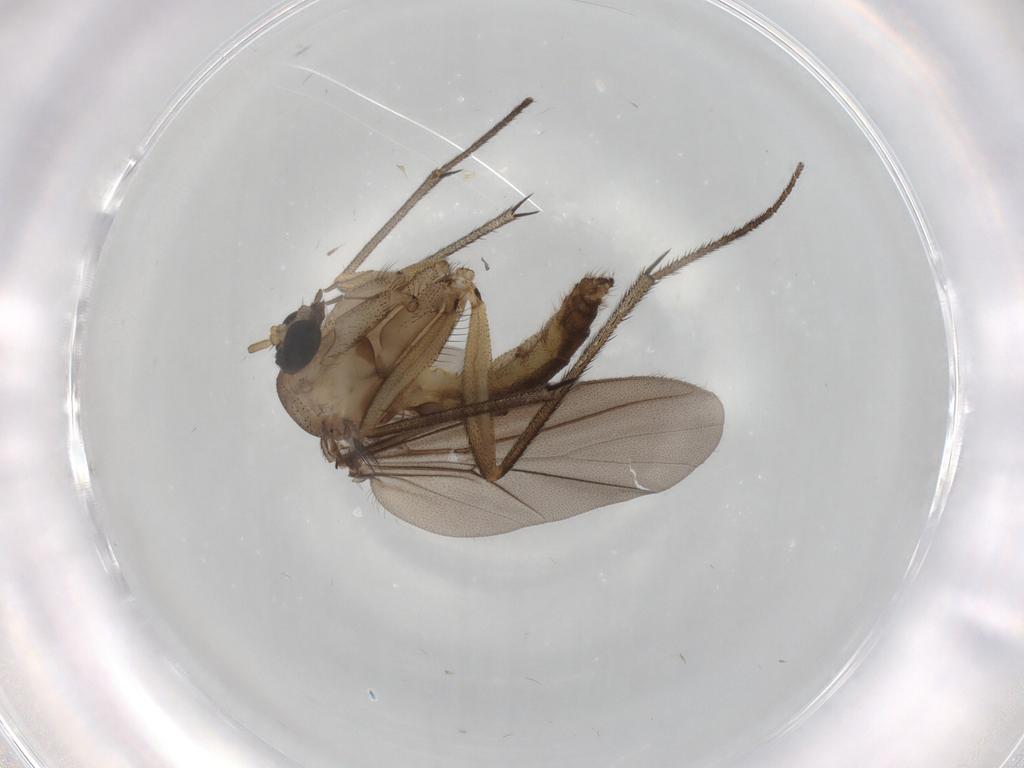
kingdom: Animalia
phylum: Arthropoda
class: Insecta
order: Diptera
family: Diadocidiidae
